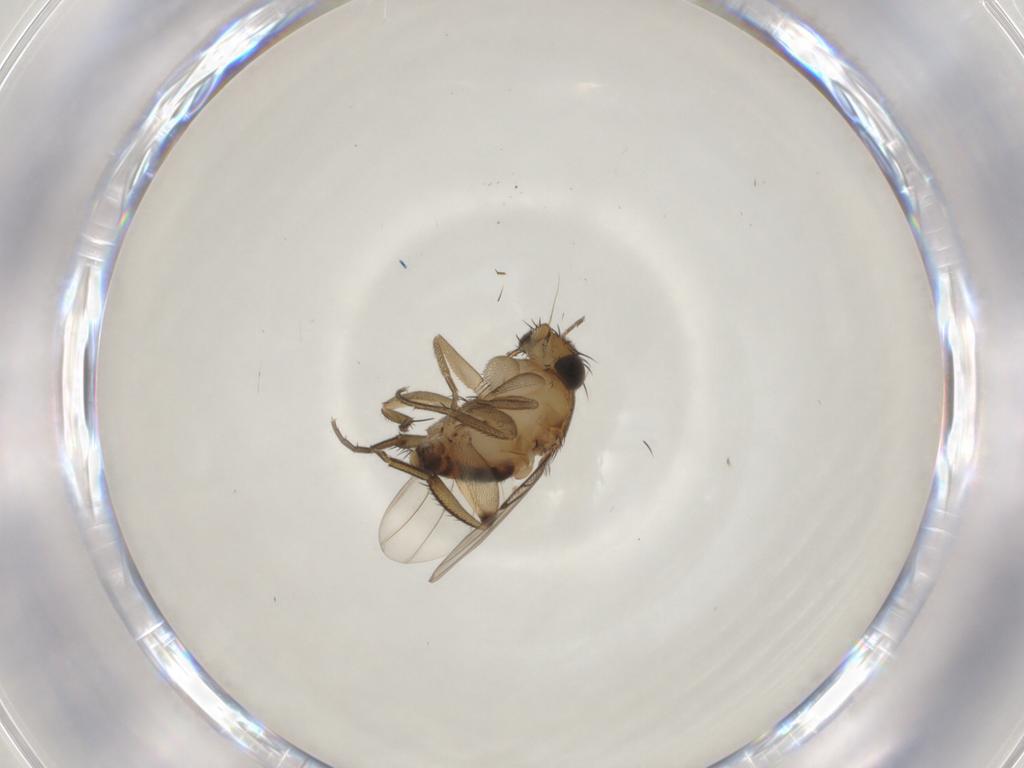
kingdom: Animalia
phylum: Arthropoda
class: Insecta
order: Diptera
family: Phoridae
